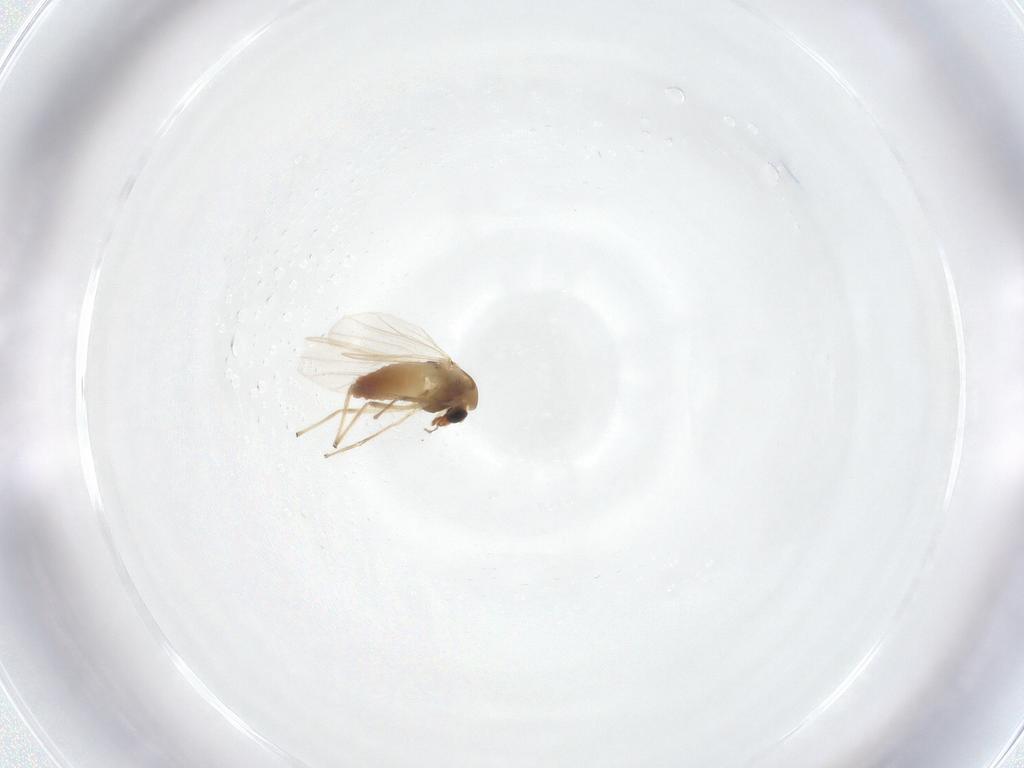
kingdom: Animalia
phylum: Arthropoda
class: Insecta
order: Diptera
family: Chironomidae
